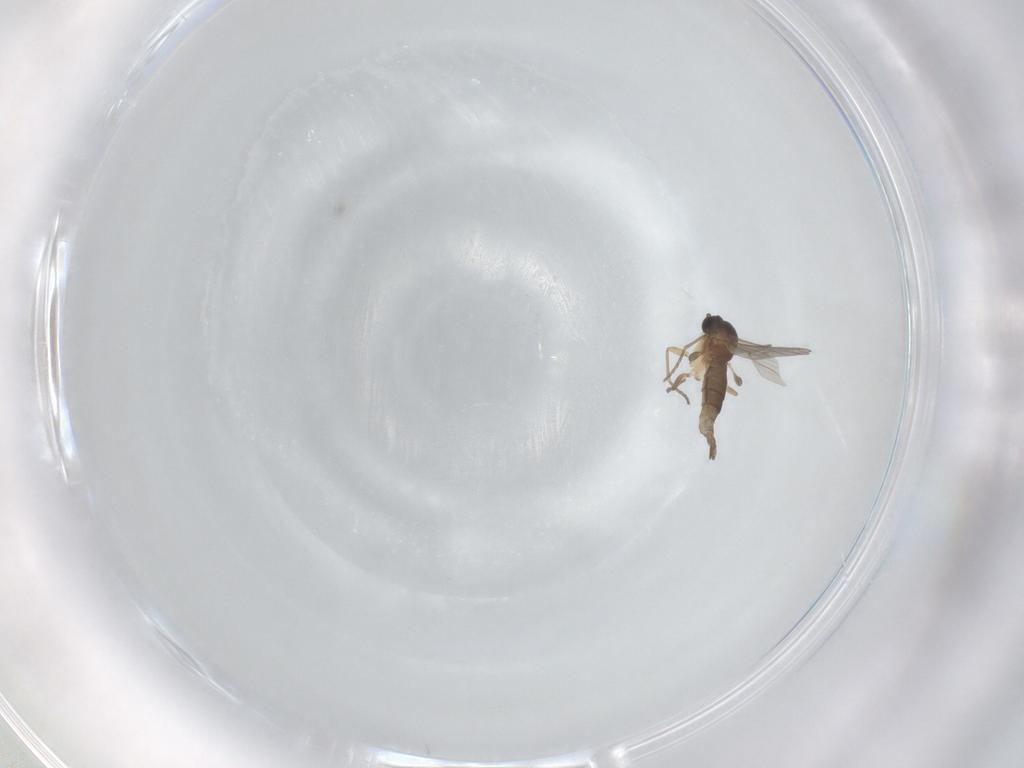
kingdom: Animalia
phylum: Arthropoda
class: Insecta
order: Diptera
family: Sciaridae
